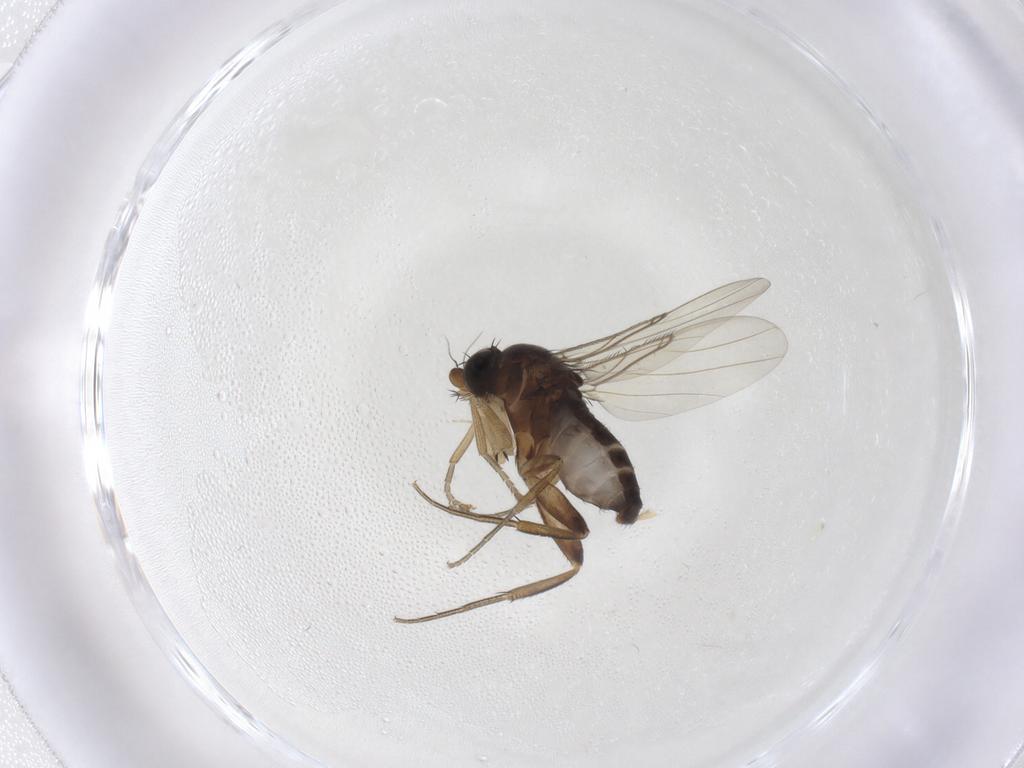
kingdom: Animalia
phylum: Arthropoda
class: Insecta
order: Diptera
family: Phoridae
